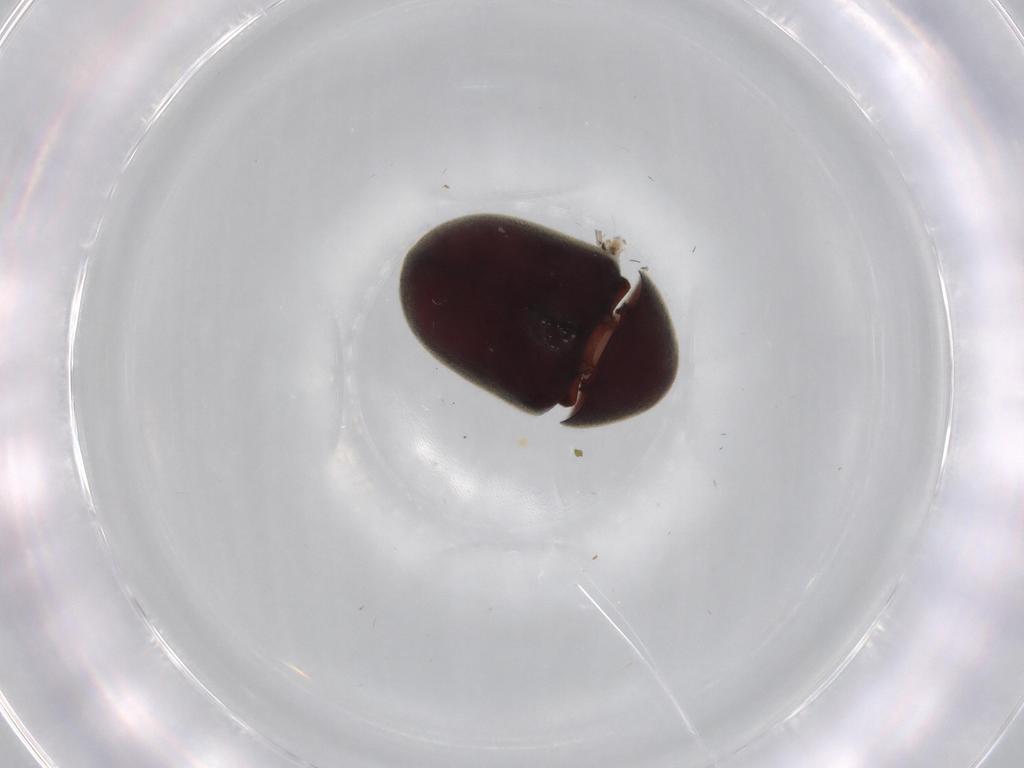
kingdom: Animalia
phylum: Arthropoda
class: Insecta
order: Coleoptera
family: Ptinidae
